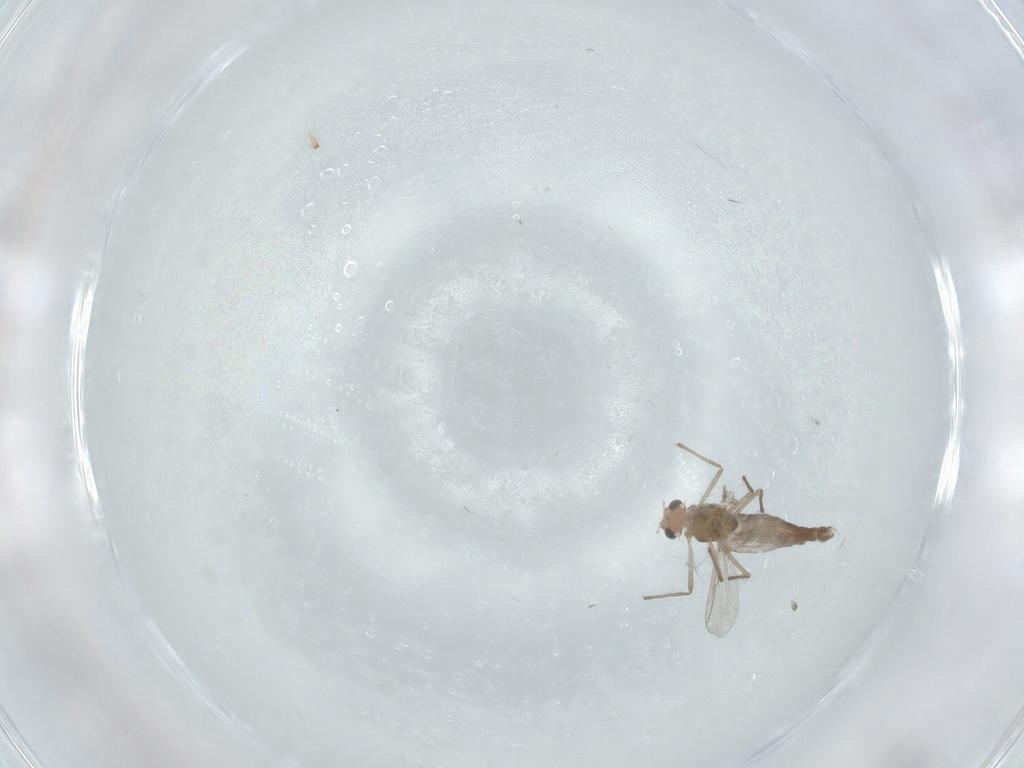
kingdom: Animalia
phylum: Arthropoda
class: Insecta
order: Diptera
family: Chironomidae
